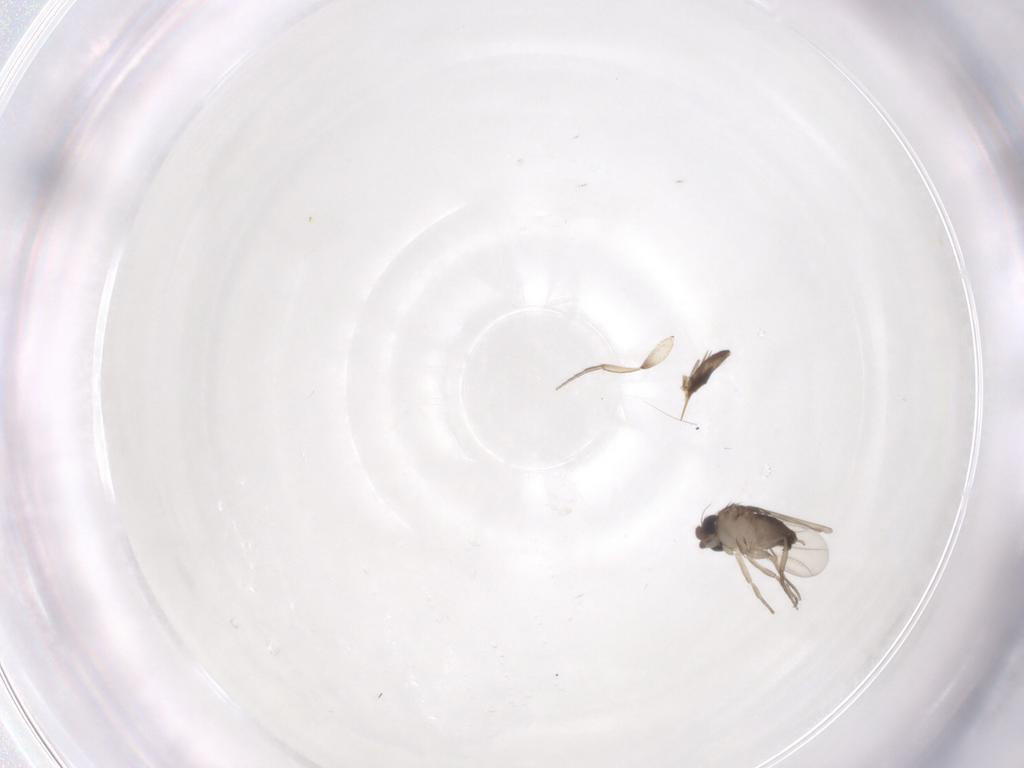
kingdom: Animalia
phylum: Arthropoda
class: Insecta
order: Diptera
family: Phoridae
